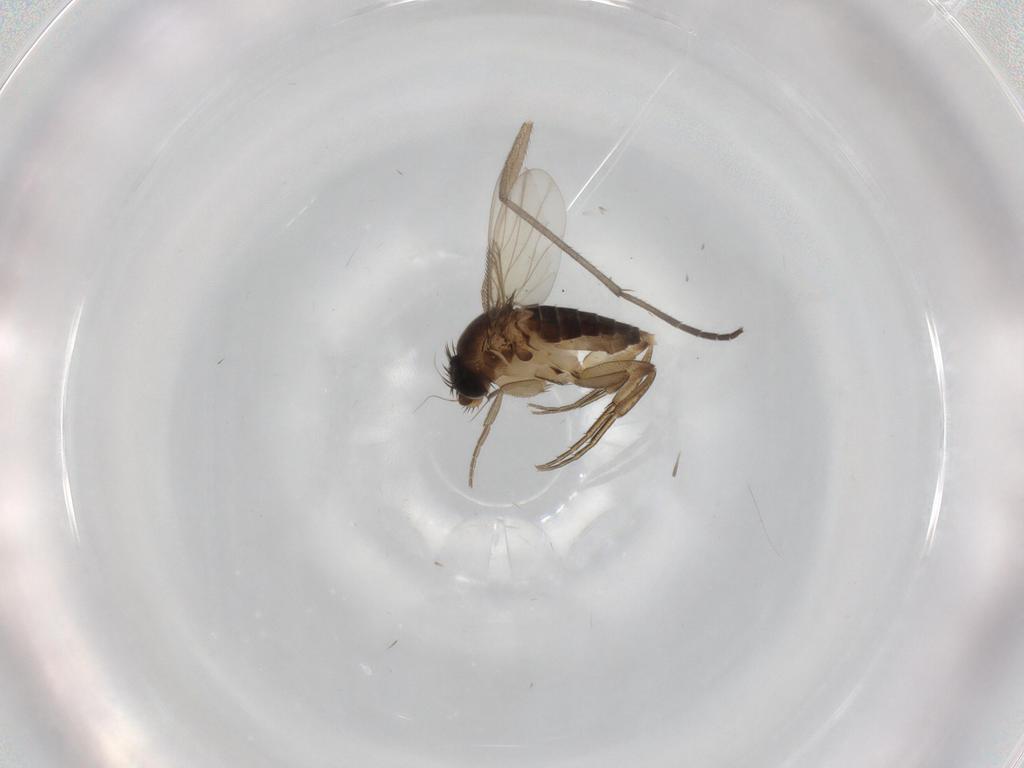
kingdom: Animalia
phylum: Arthropoda
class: Insecta
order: Diptera
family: Sciaridae
